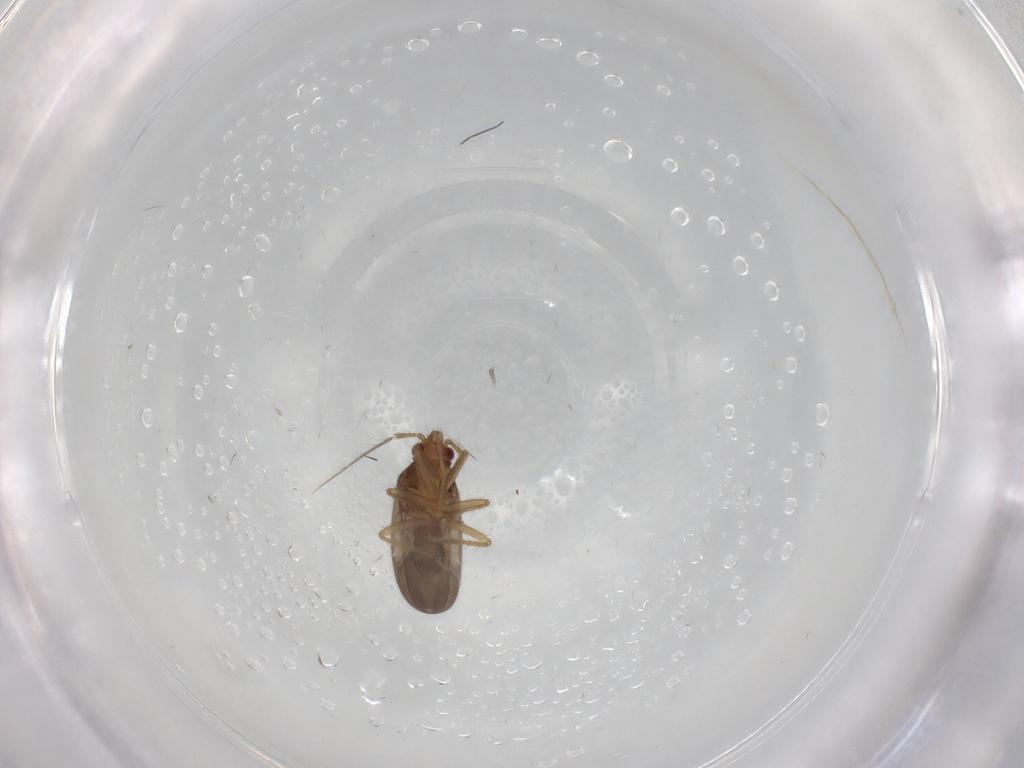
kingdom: Animalia
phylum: Arthropoda
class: Insecta
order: Hemiptera
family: Ceratocombidae
